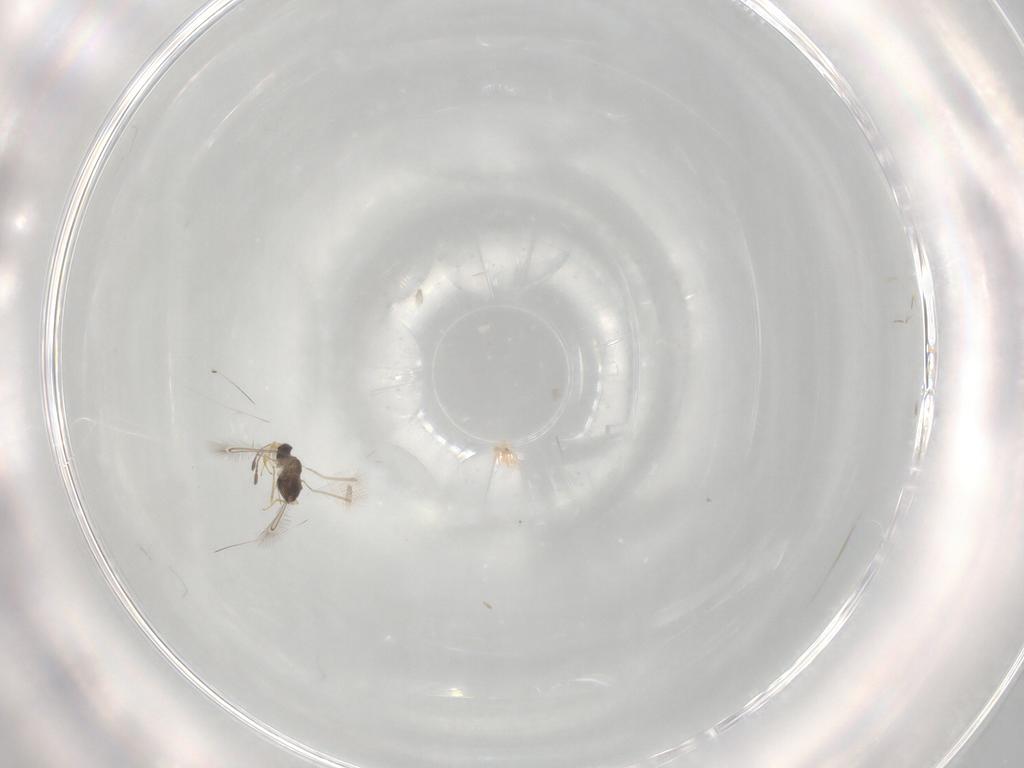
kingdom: Animalia
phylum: Arthropoda
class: Insecta
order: Hymenoptera
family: Mymaridae
